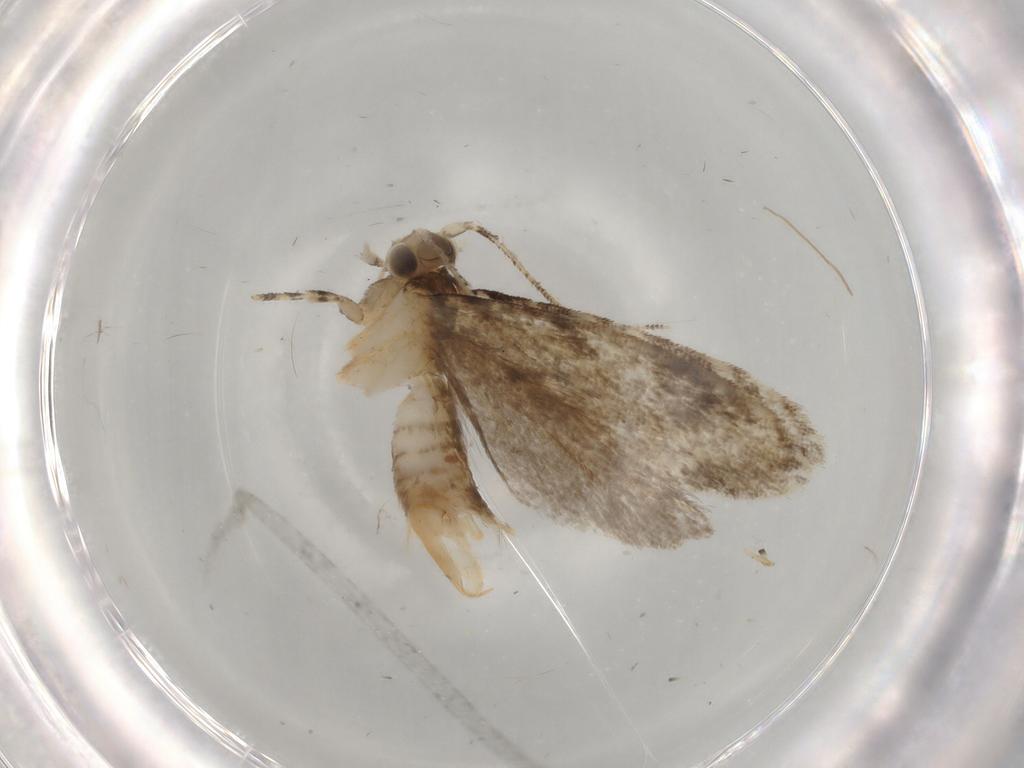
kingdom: Animalia
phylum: Arthropoda
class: Insecta
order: Lepidoptera
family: Tineidae
